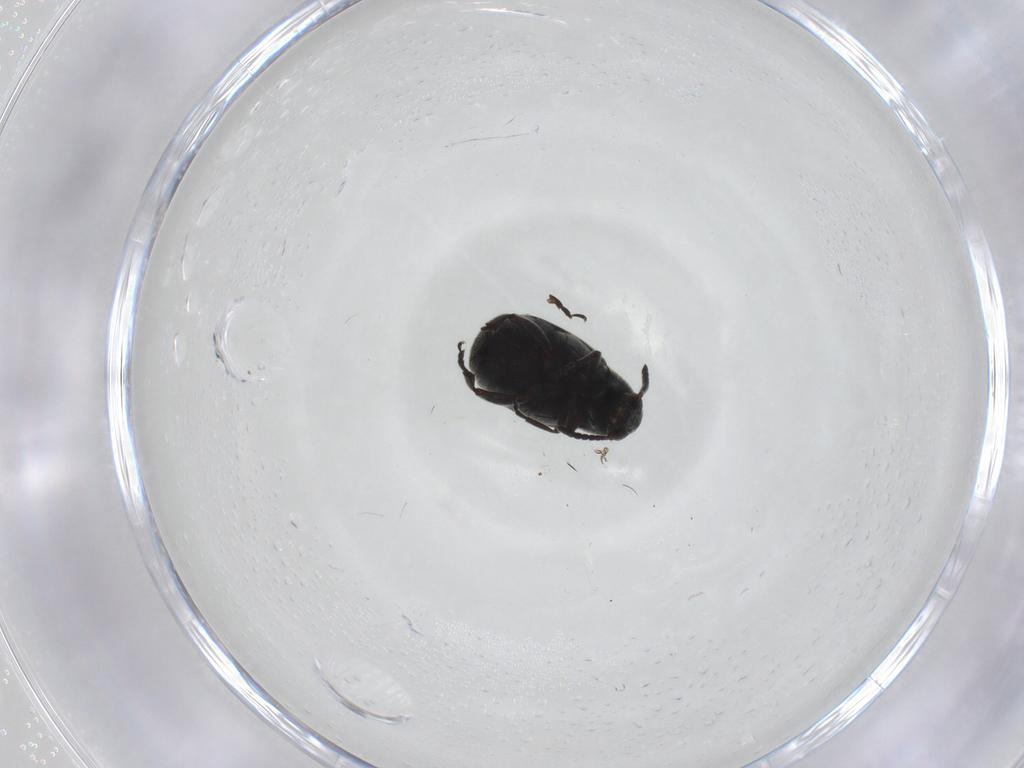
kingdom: Animalia
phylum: Arthropoda
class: Insecta
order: Coleoptera
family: Chrysomelidae
